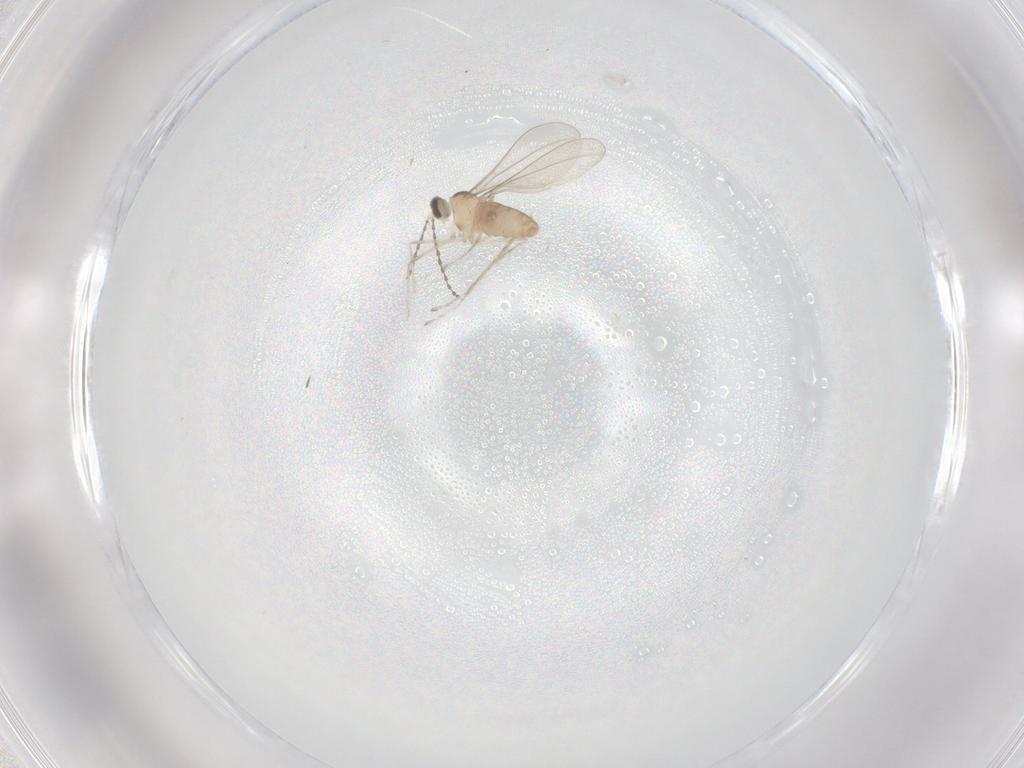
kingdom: Animalia
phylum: Arthropoda
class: Insecta
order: Diptera
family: Cecidomyiidae
